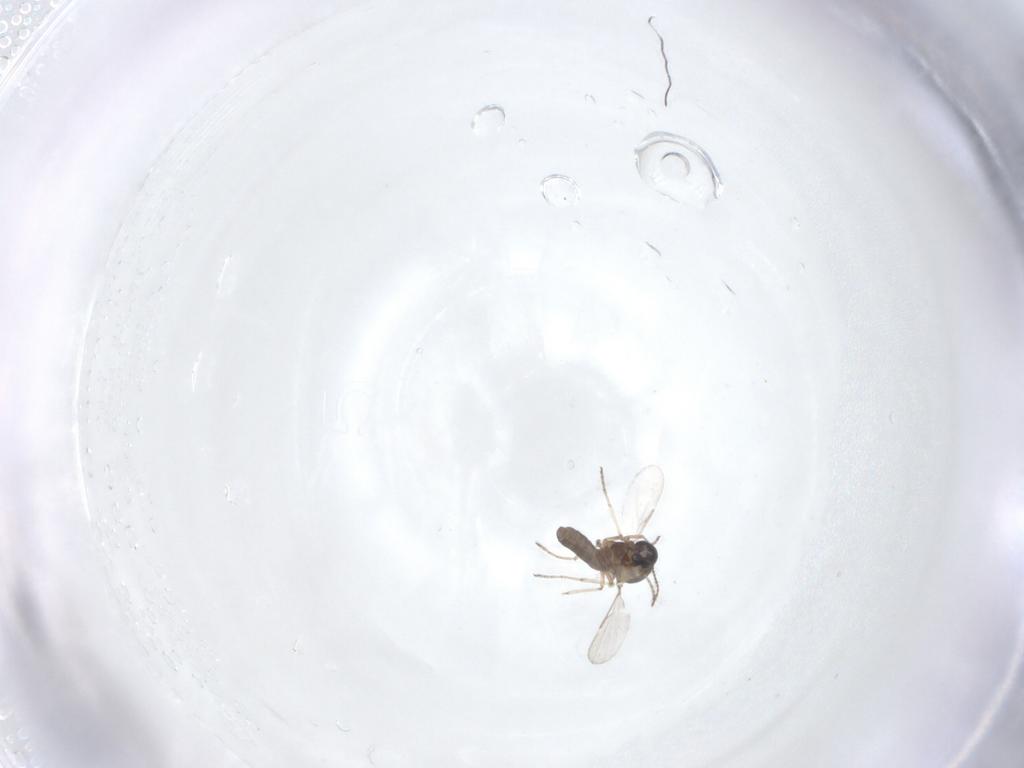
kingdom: Animalia
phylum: Arthropoda
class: Insecta
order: Diptera
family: Ceratopogonidae
